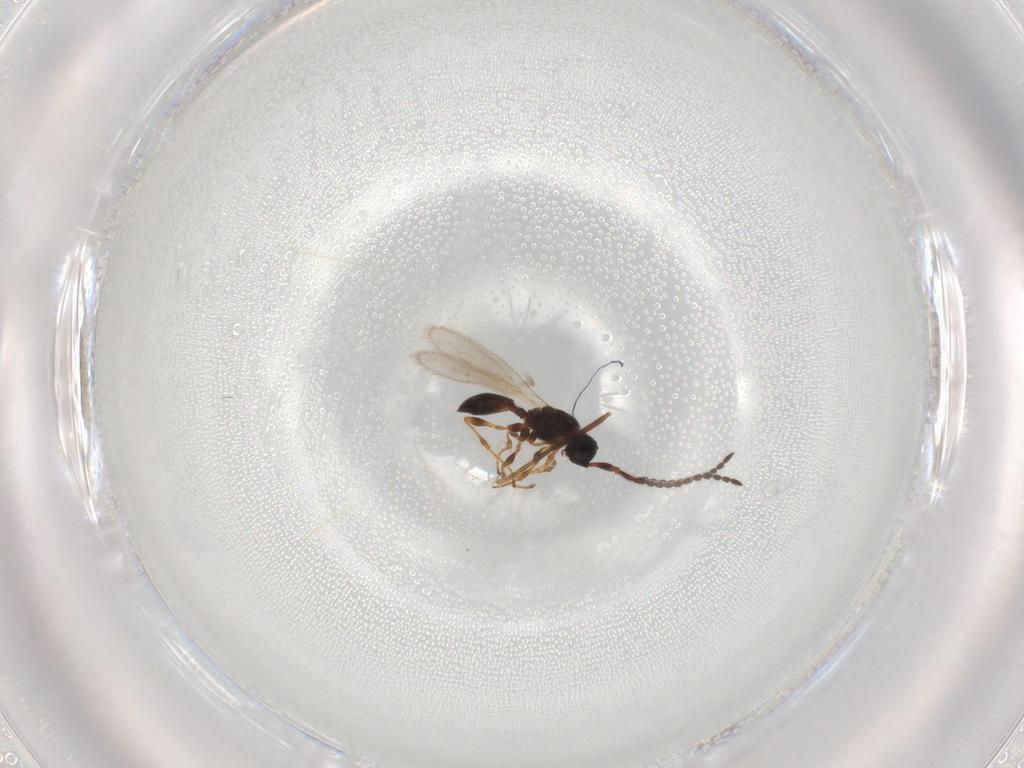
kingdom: Animalia
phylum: Arthropoda
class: Insecta
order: Hymenoptera
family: Diapriidae
